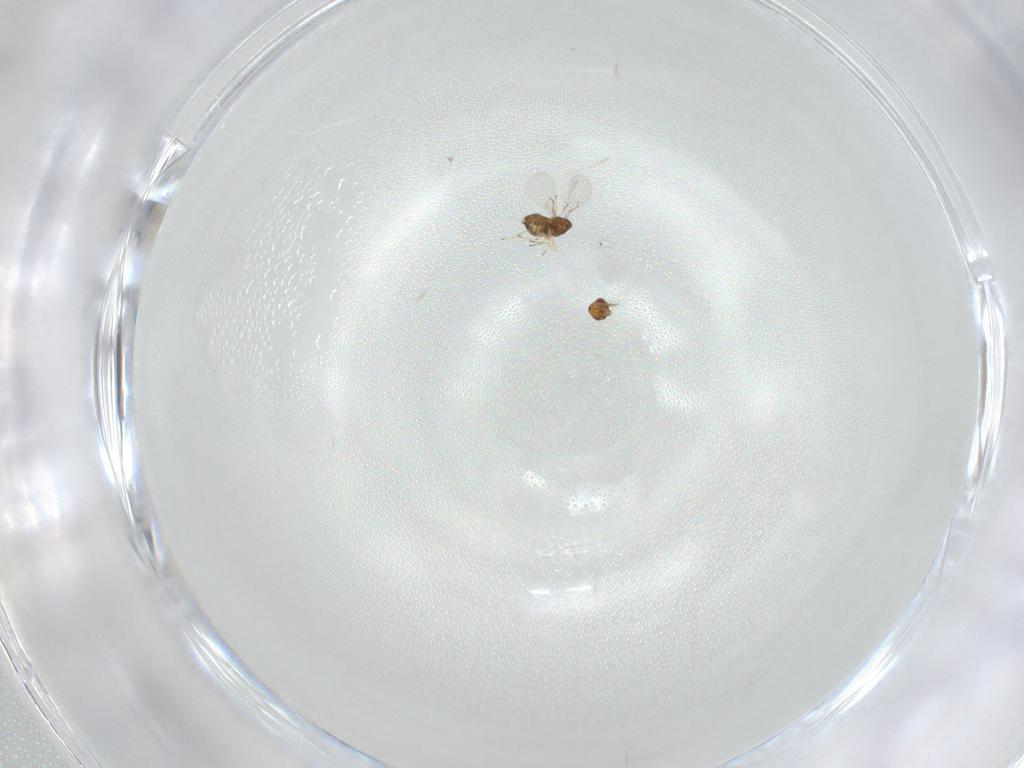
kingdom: Animalia
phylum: Arthropoda
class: Insecta
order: Hymenoptera
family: Trichogrammatidae
